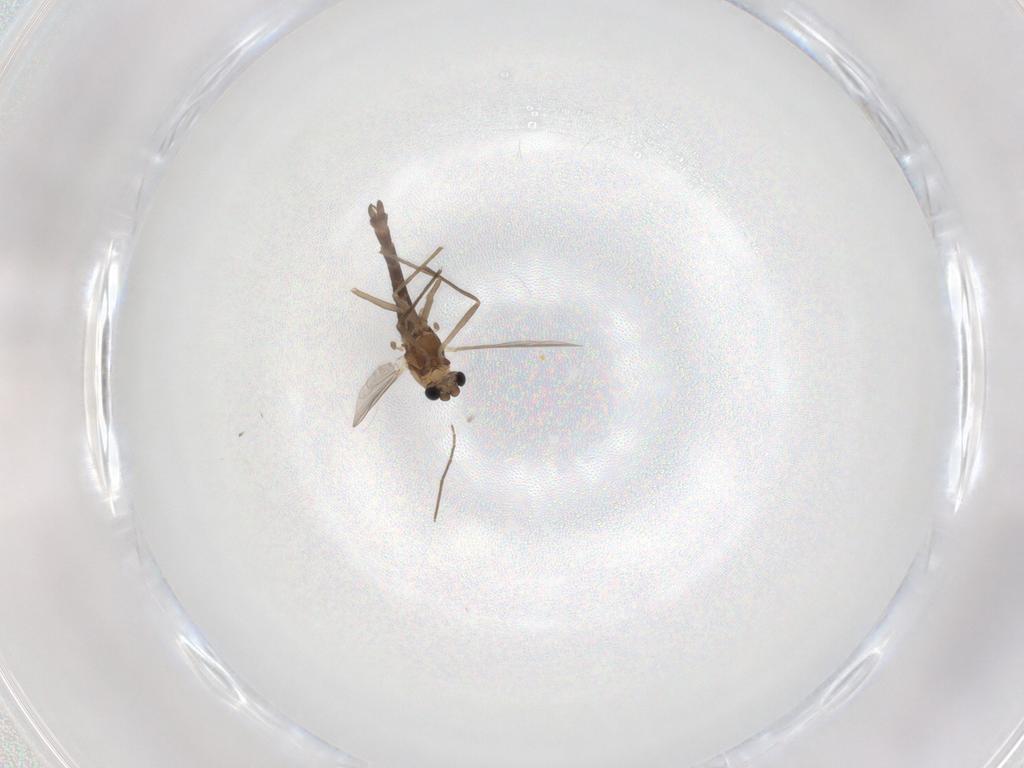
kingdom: Animalia
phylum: Arthropoda
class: Insecta
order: Diptera
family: Chironomidae
